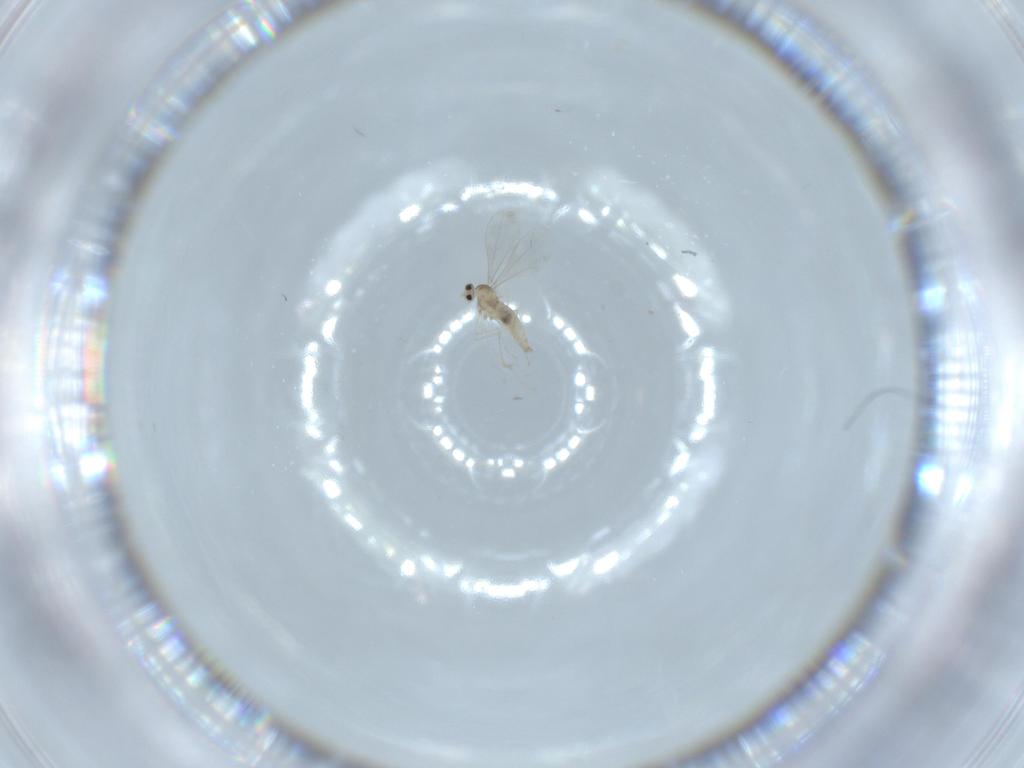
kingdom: Animalia
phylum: Arthropoda
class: Insecta
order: Diptera
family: Cecidomyiidae
